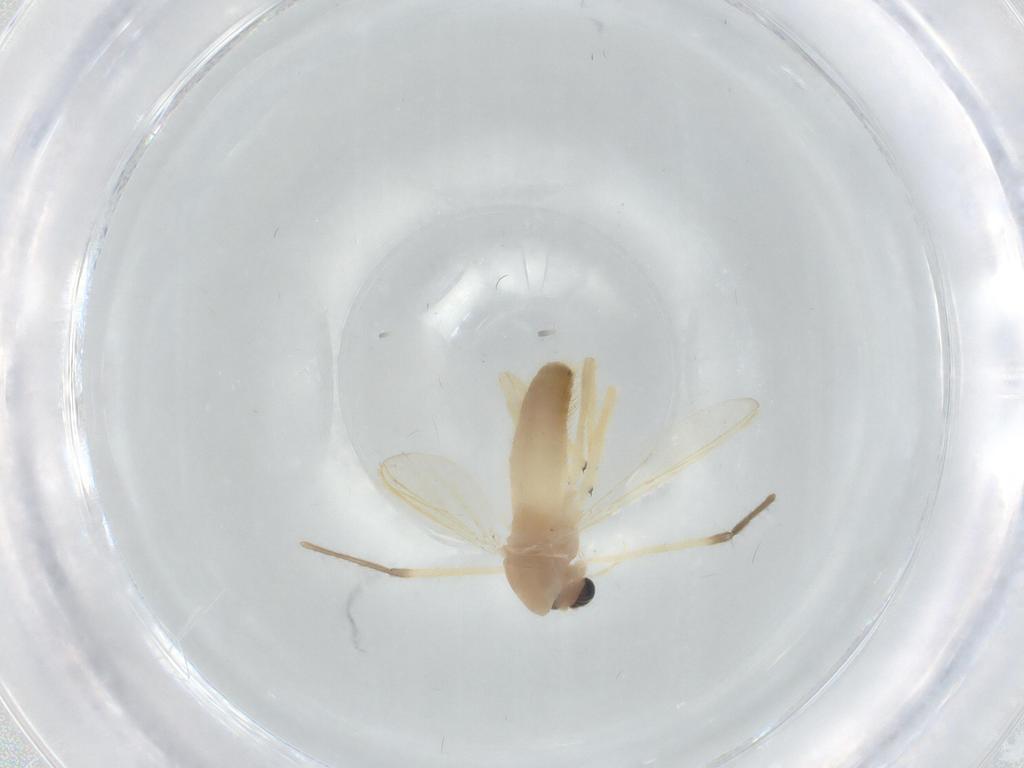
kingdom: Animalia
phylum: Arthropoda
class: Insecta
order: Diptera
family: Chironomidae
